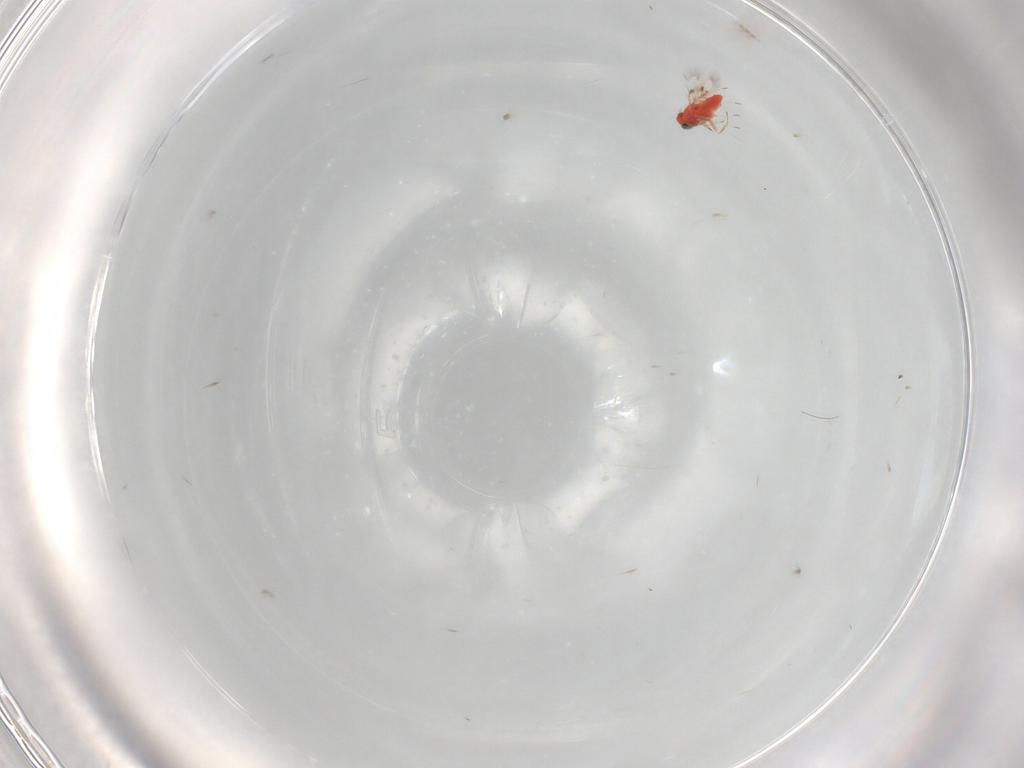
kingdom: Animalia
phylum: Arthropoda
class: Insecta
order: Hymenoptera
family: Trichogrammatidae
